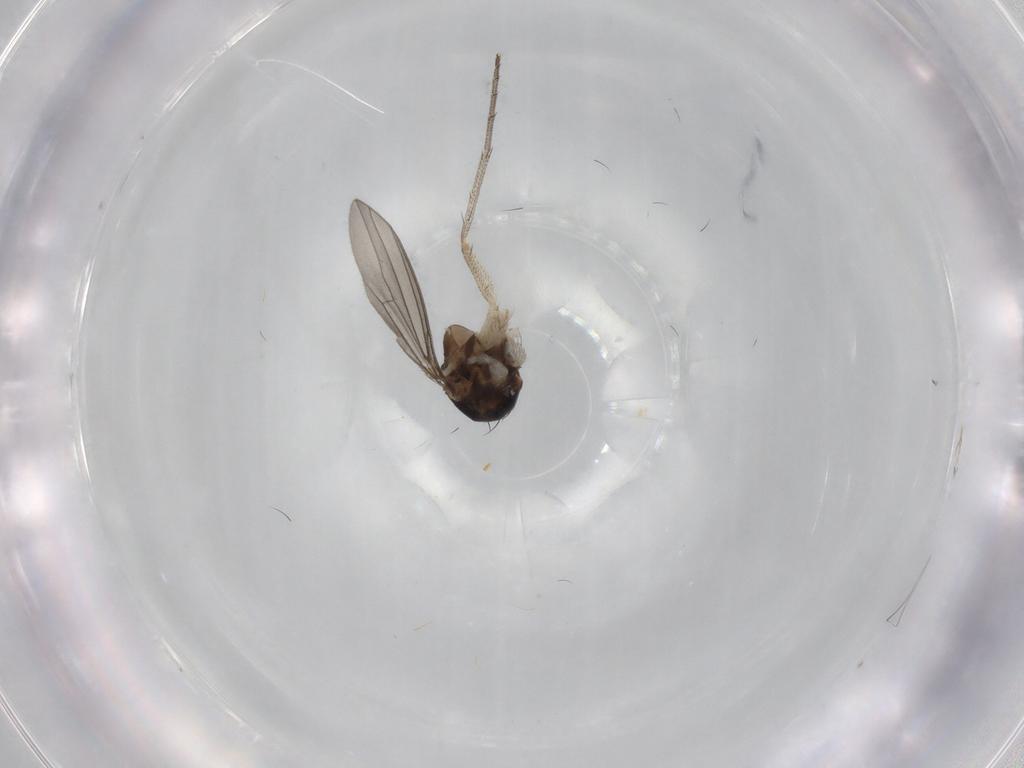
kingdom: Animalia
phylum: Arthropoda
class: Insecta
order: Diptera
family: Dolichopodidae
